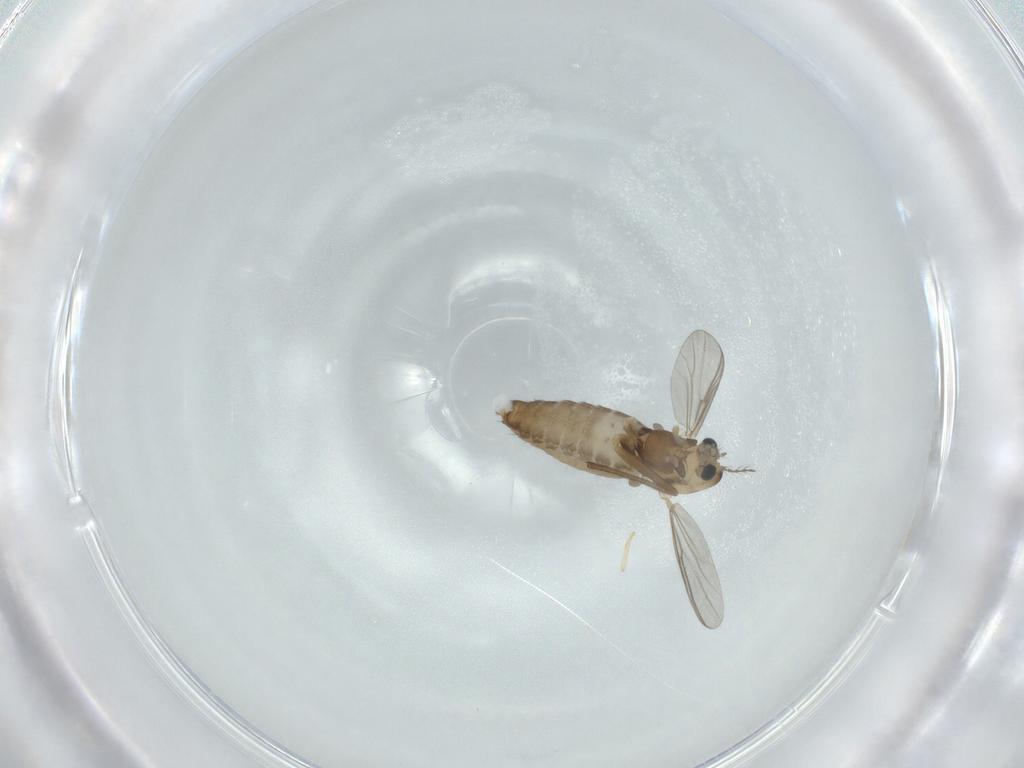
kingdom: Animalia
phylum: Arthropoda
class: Insecta
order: Diptera
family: Chironomidae
